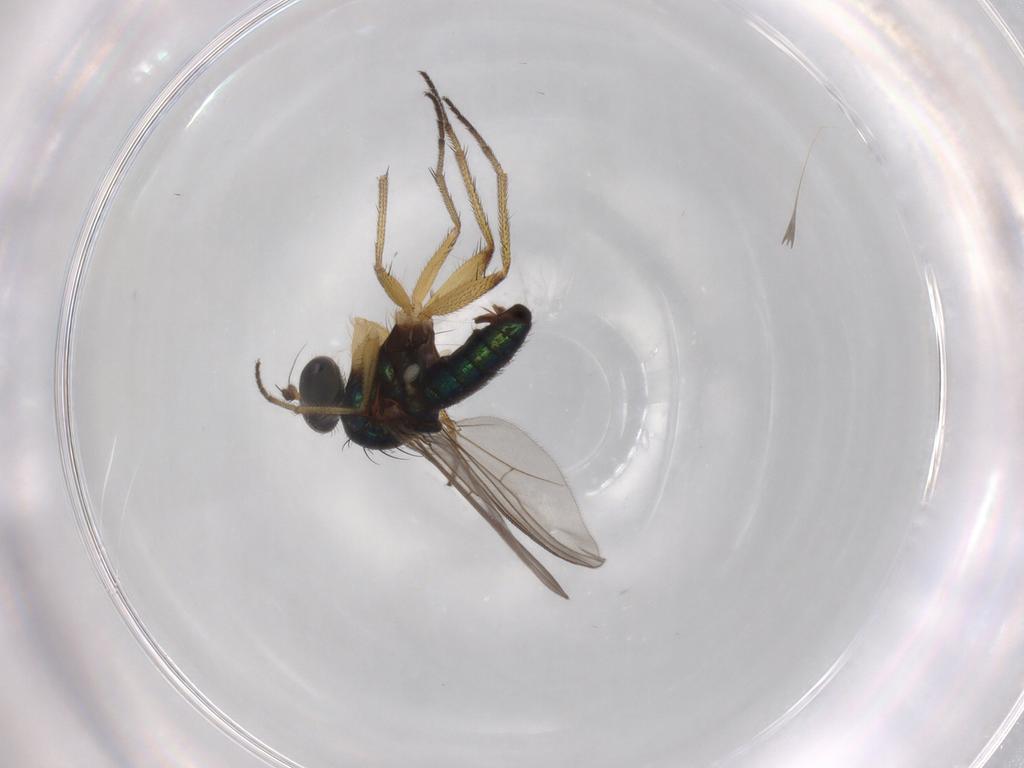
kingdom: Animalia
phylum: Arthropoda
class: Insecta
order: Diptera
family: Dolichopodidae
